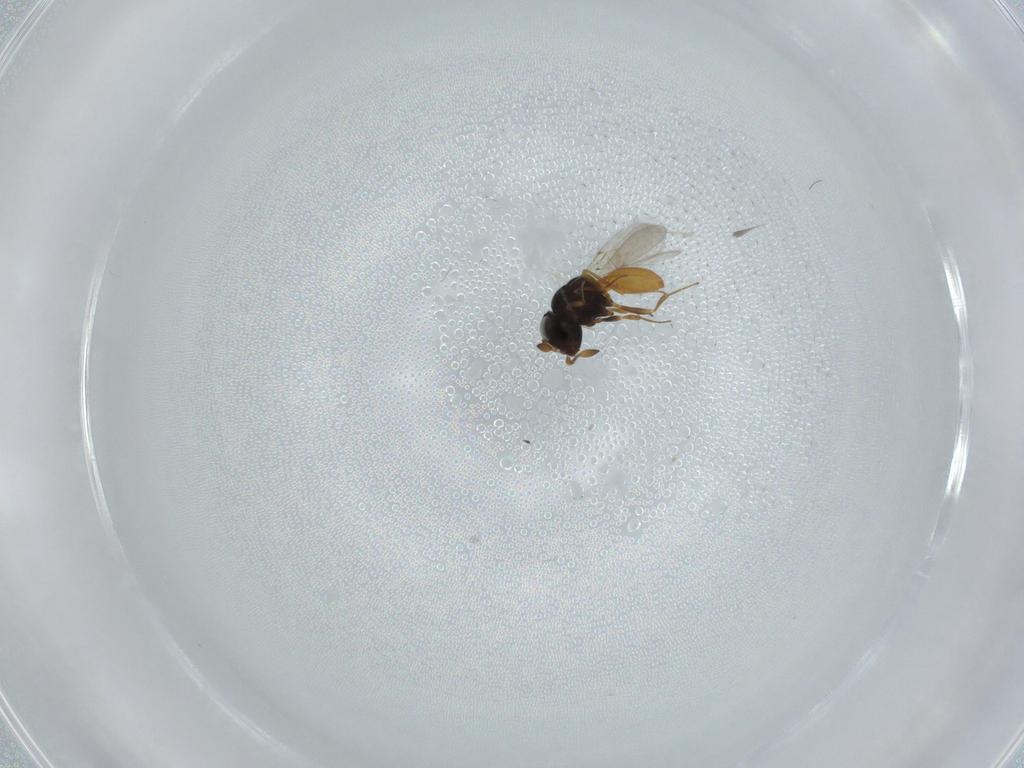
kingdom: Animalia
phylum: Arthropoda
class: Insecta
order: Hymenoptera
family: Scelionidae
